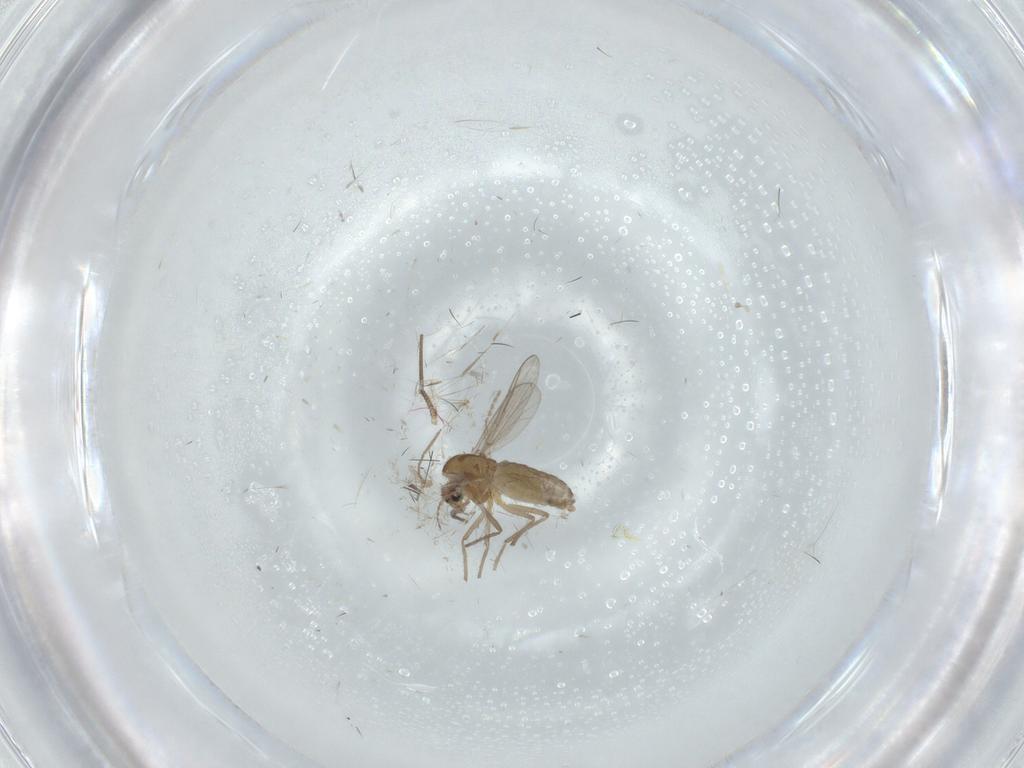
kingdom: Animalia
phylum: Arthropoda
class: Insecta
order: Diptera
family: Chironomidae
